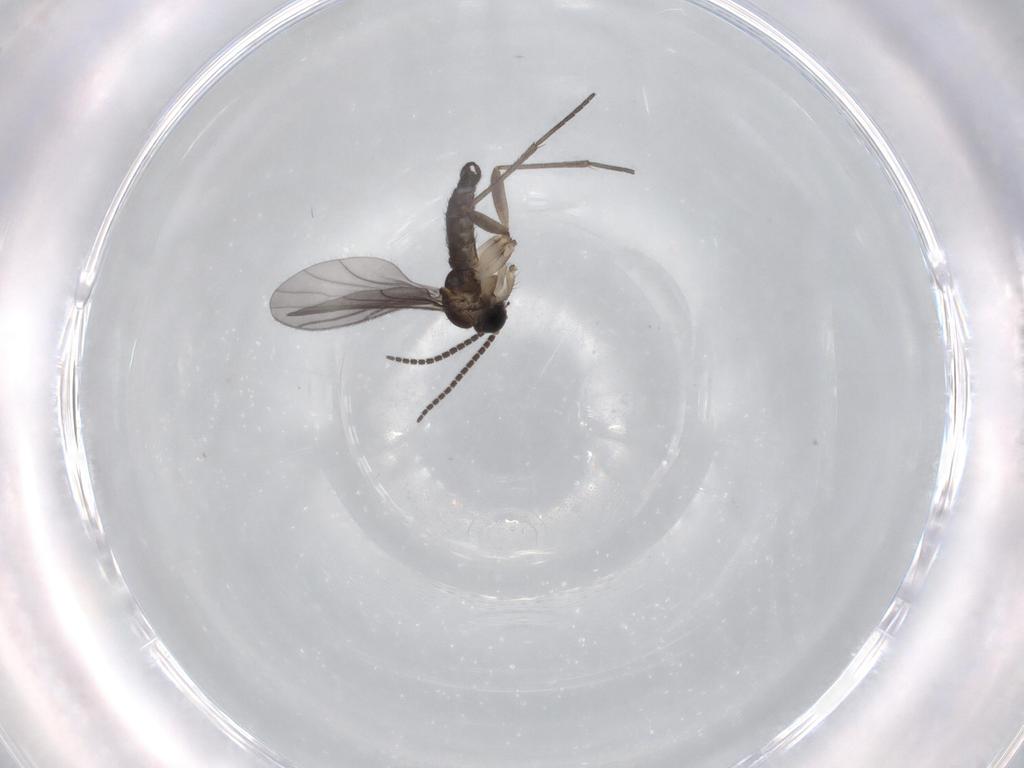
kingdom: Animalia
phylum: Arthropoda
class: Insecta
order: Diptera
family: Sciaridae
